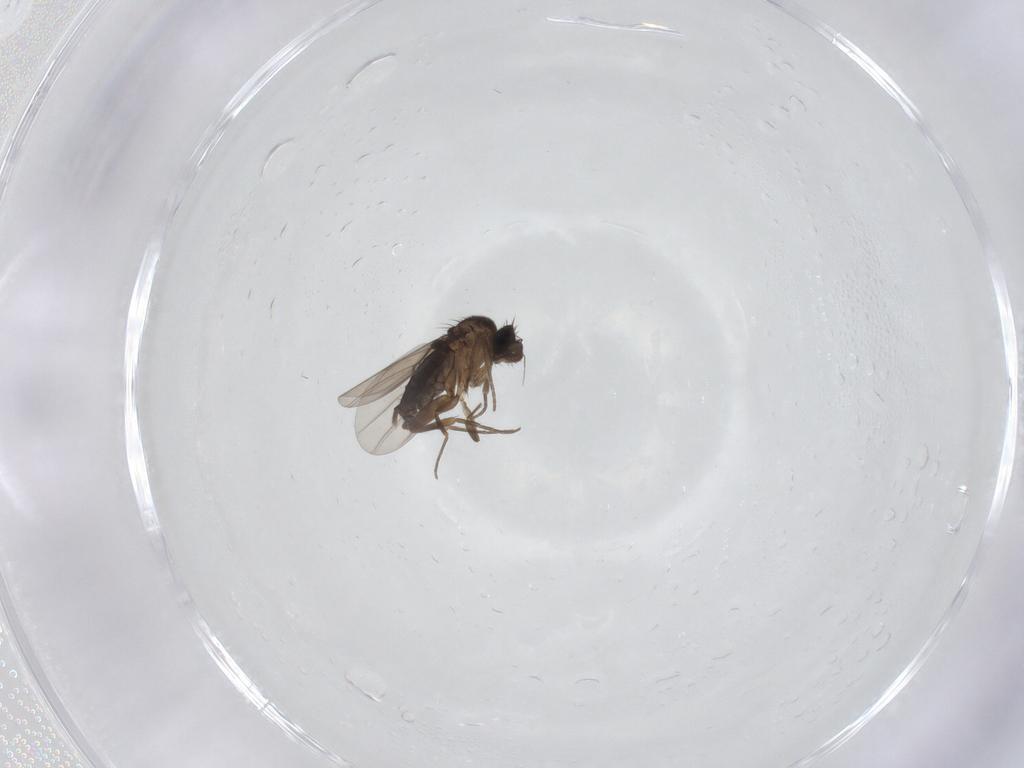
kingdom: Animalia
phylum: Arthropoda
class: Insecta
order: Diptera
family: Phoridae
